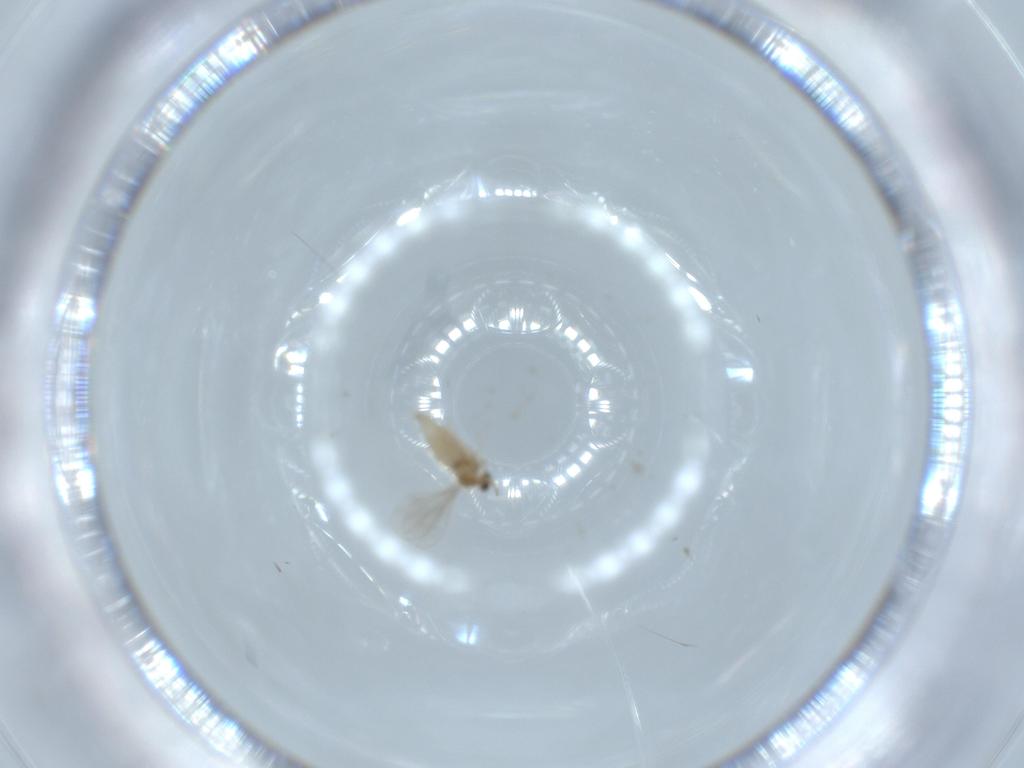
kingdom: Animalia
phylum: Arthropoda
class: Insecta
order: Diptera
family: Cecidomyiidae
